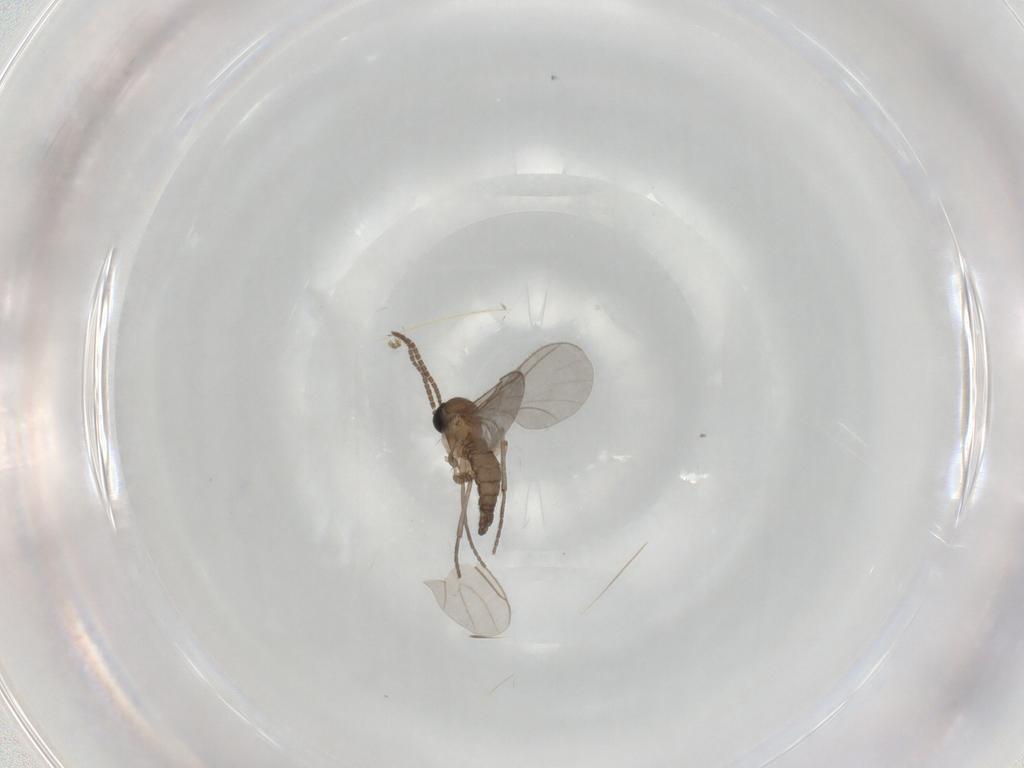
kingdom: Animalia
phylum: Arthropoda
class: Insecta
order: Diptera
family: Sciaridae
